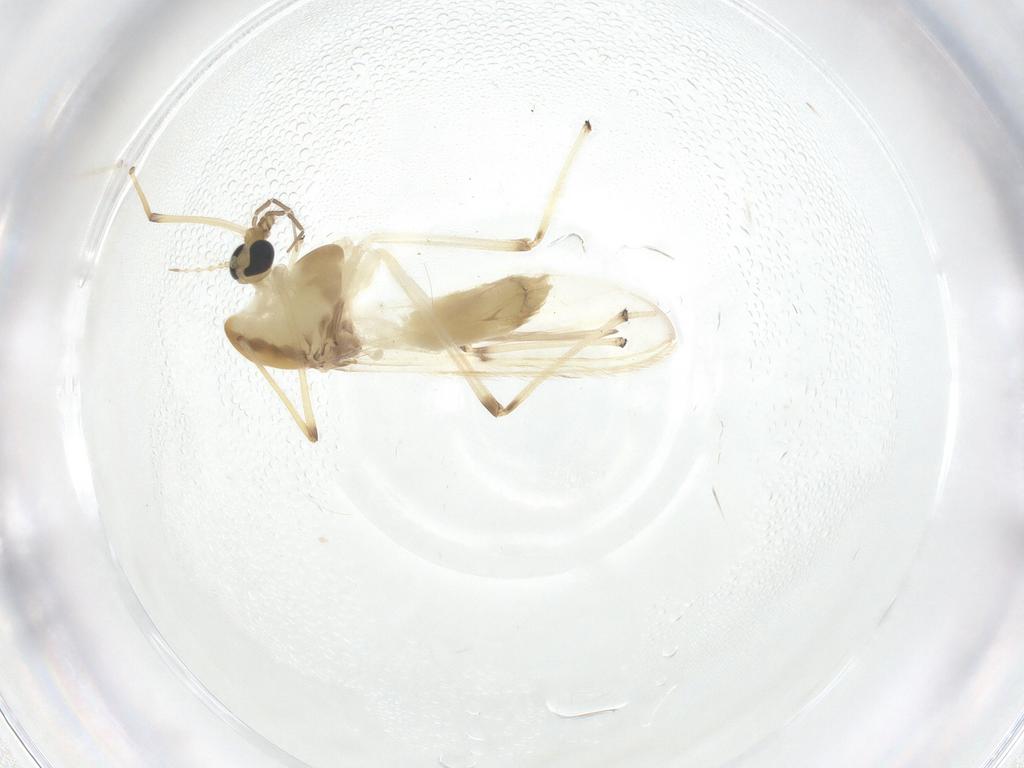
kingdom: Animalia
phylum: Arthropoda
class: Insecta
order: Diptera
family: Chironomidae
